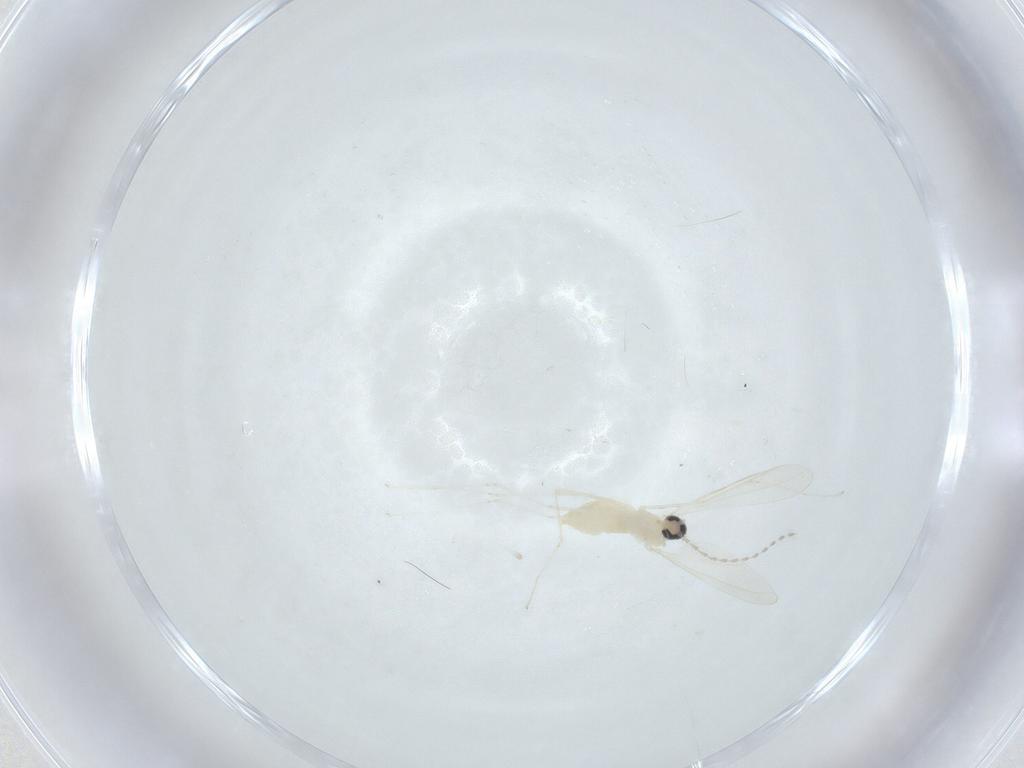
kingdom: Animalia
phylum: Arthropoda
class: Insecta
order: Diptera
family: Cecidomyiidae
